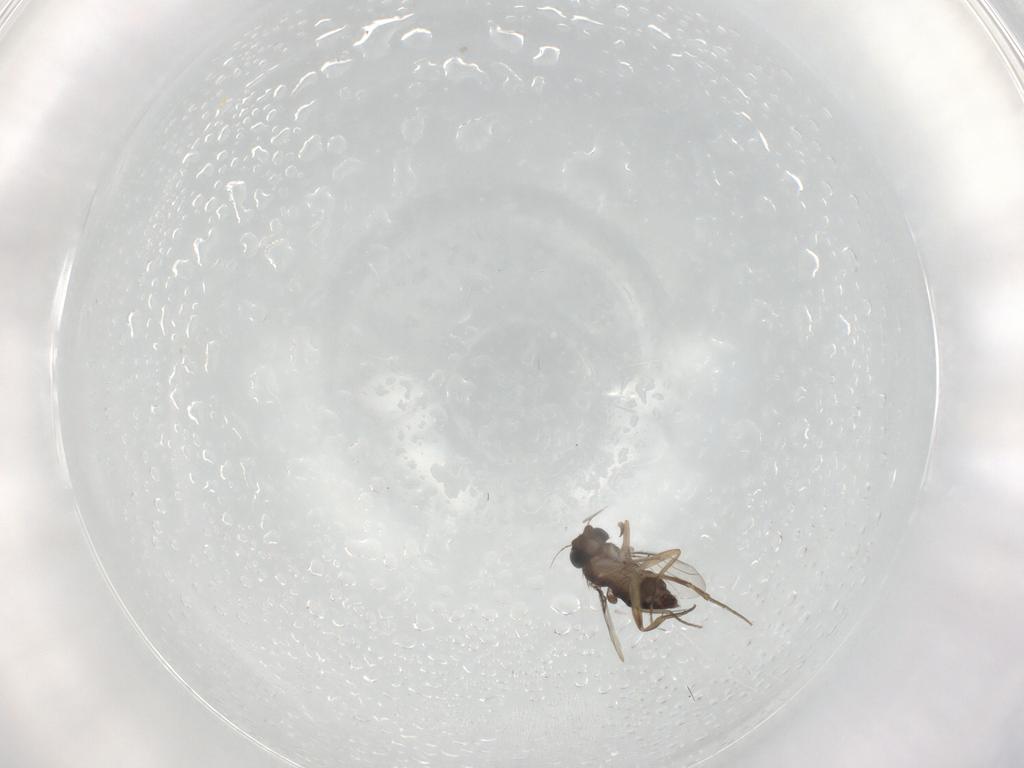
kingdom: Animalia
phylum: Arthropoda
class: Insecta
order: Diptera
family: Phoridae
